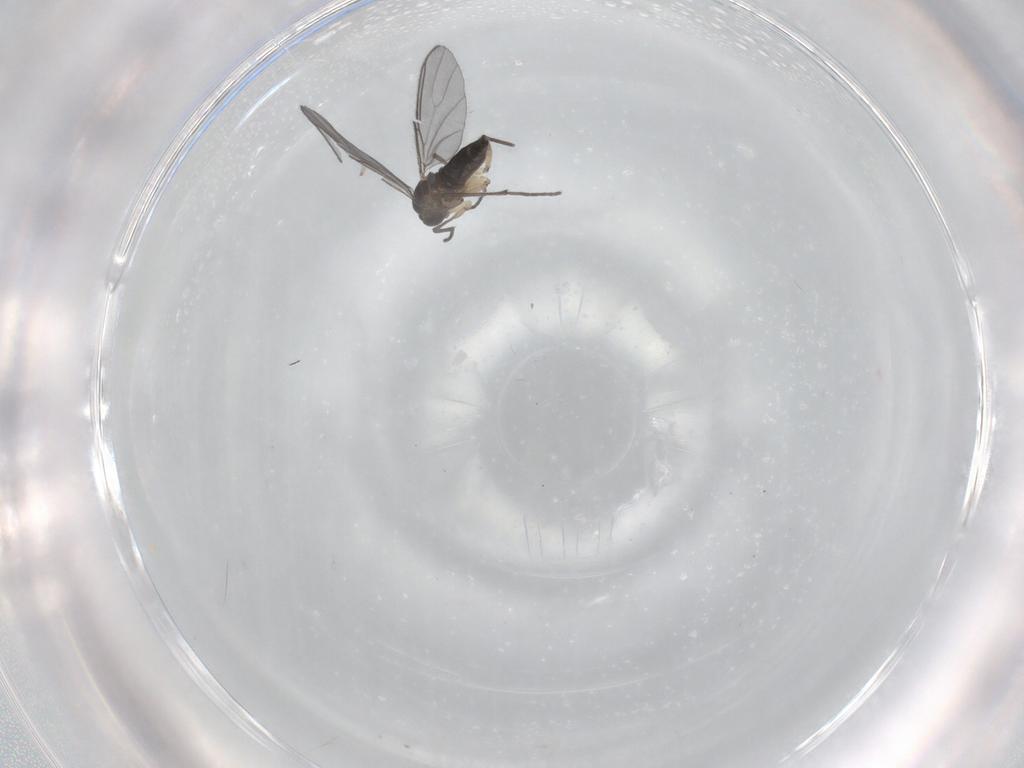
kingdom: Animalia
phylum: Arthropoda
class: Insecta
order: Diptera
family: Sciaridae
